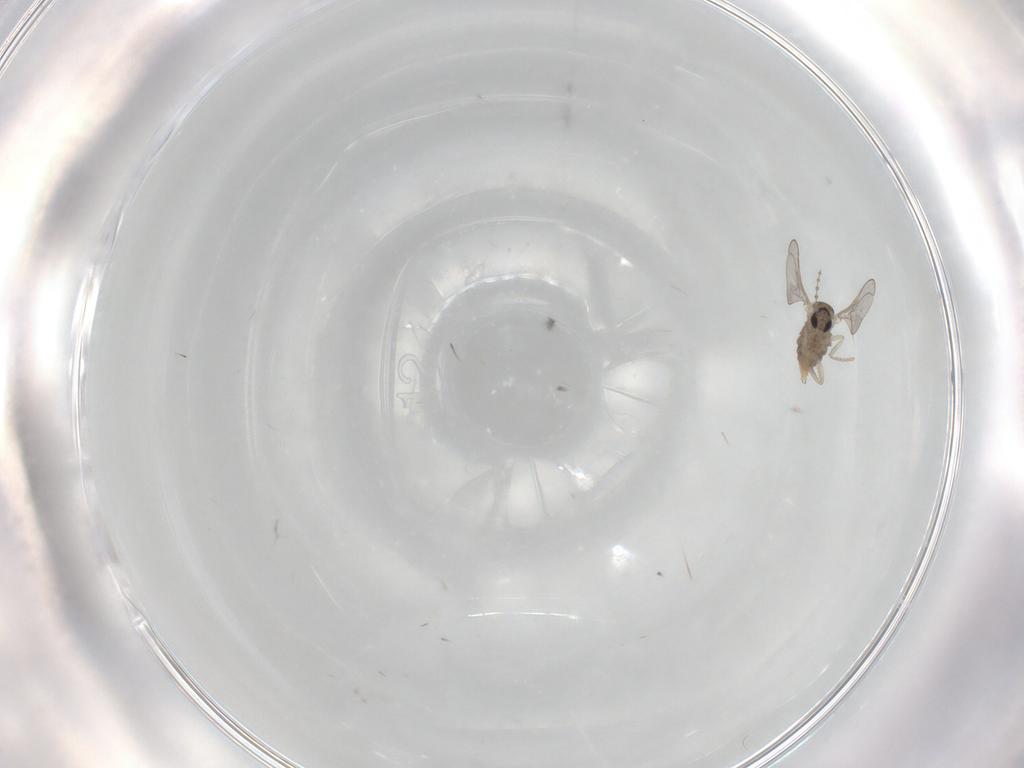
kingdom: Animalia
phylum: Arthropoda
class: Insecta
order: Diptera
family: Cecidomyiidae
